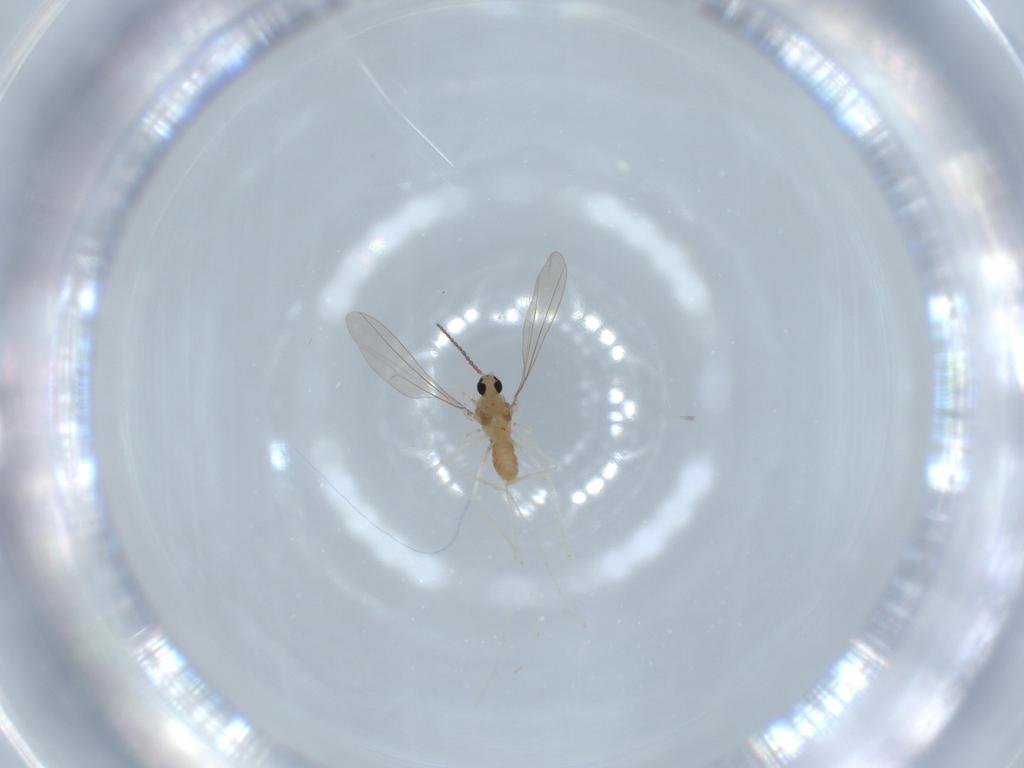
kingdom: Animalia
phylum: Arthropoda
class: Insecta
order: Diptera
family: Cecidomyiidae
